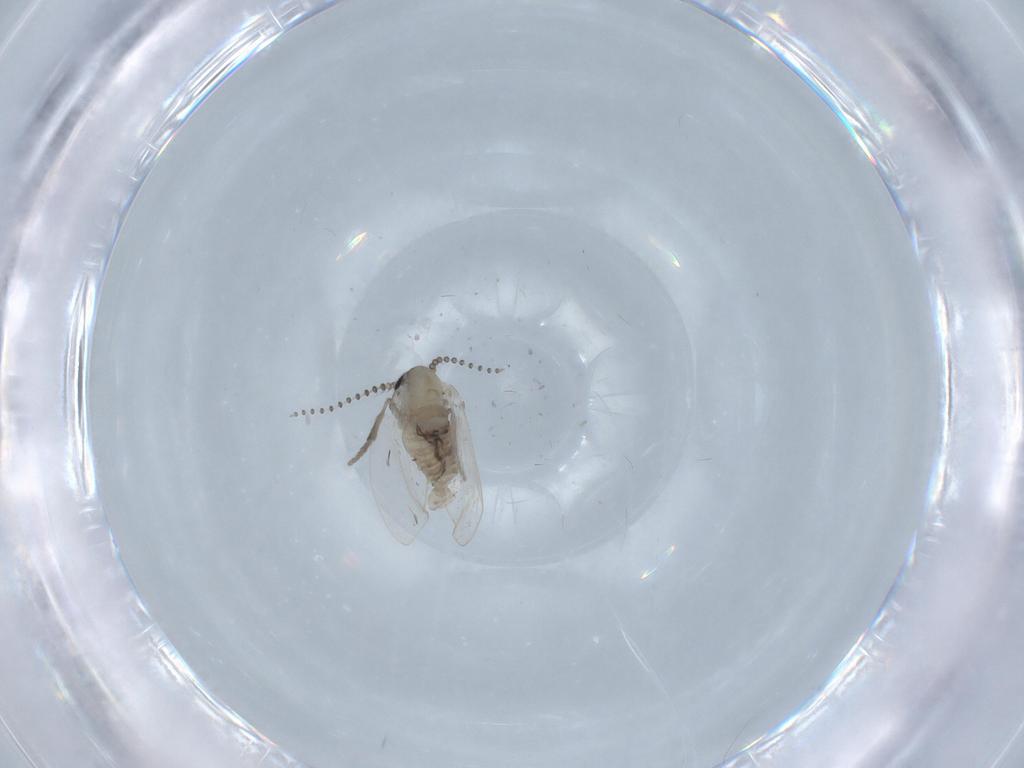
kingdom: Animalia
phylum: Arthropoda
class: Insecta
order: Diptera
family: Psychodidae
